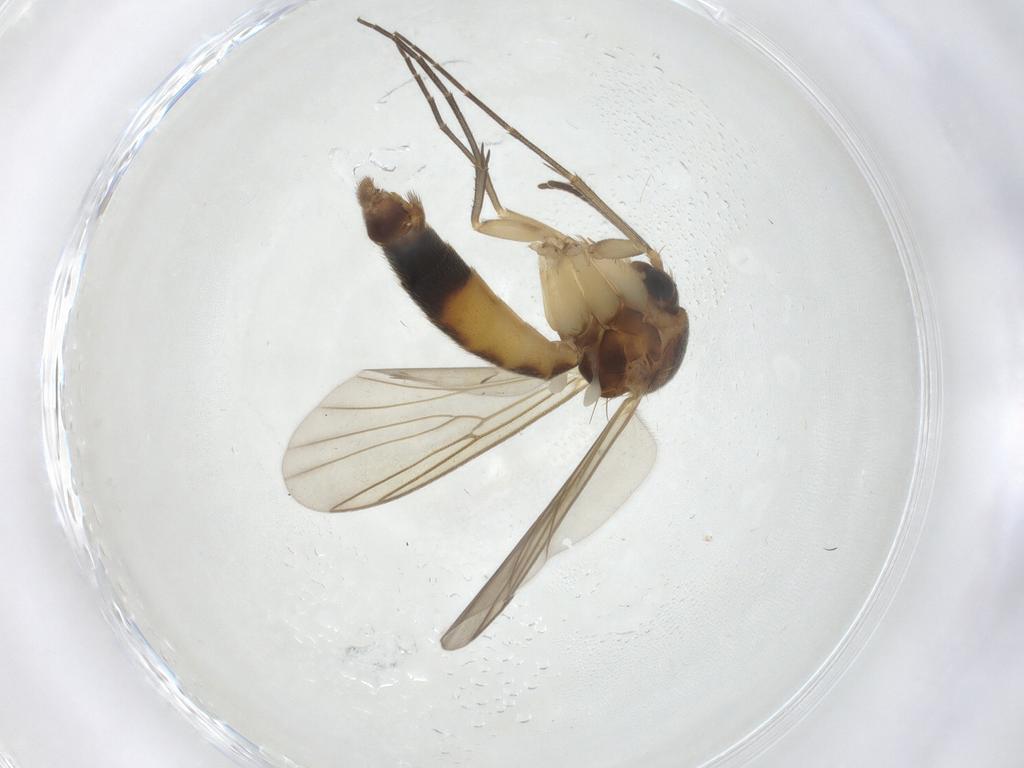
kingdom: Animalia
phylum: Arthropoda
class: Insecta
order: Diptera
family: Mycetophilidae
